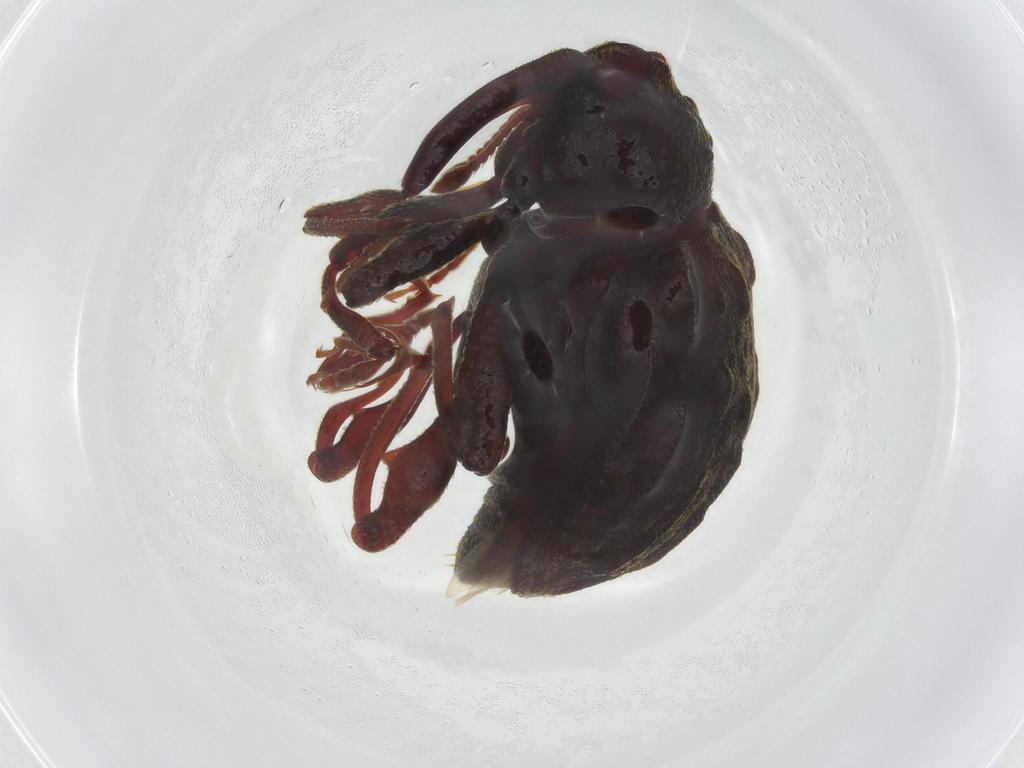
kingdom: Animalia
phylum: Arthropoda
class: Insecta
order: Coleoptera
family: Curculionidae
